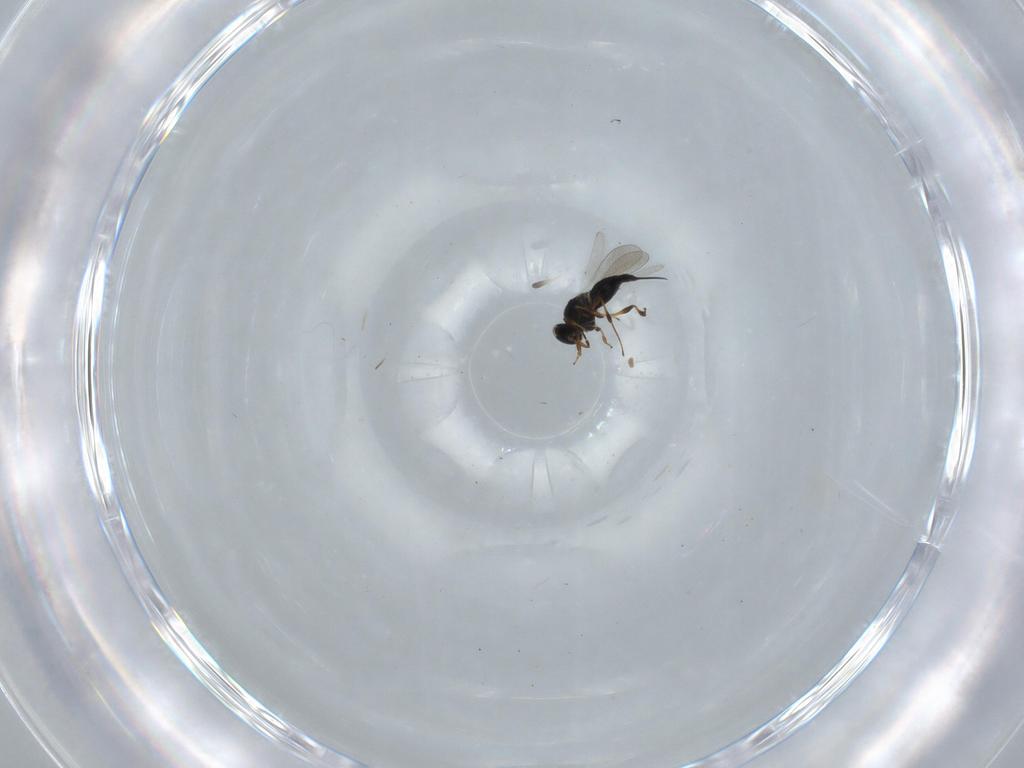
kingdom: Animalia
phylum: Arthropoda
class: Insecta
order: Hymenoptera
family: Platygastridae
